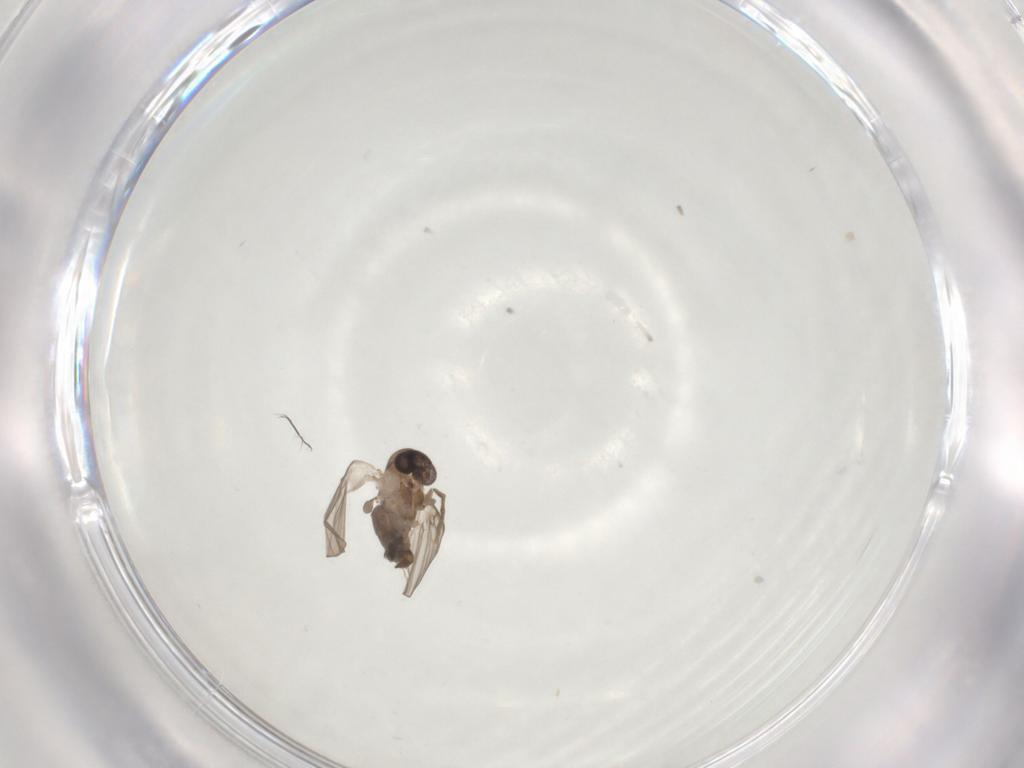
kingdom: Animalia
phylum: Arthropoda
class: Insecta
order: Diptera
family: Psychodidae
